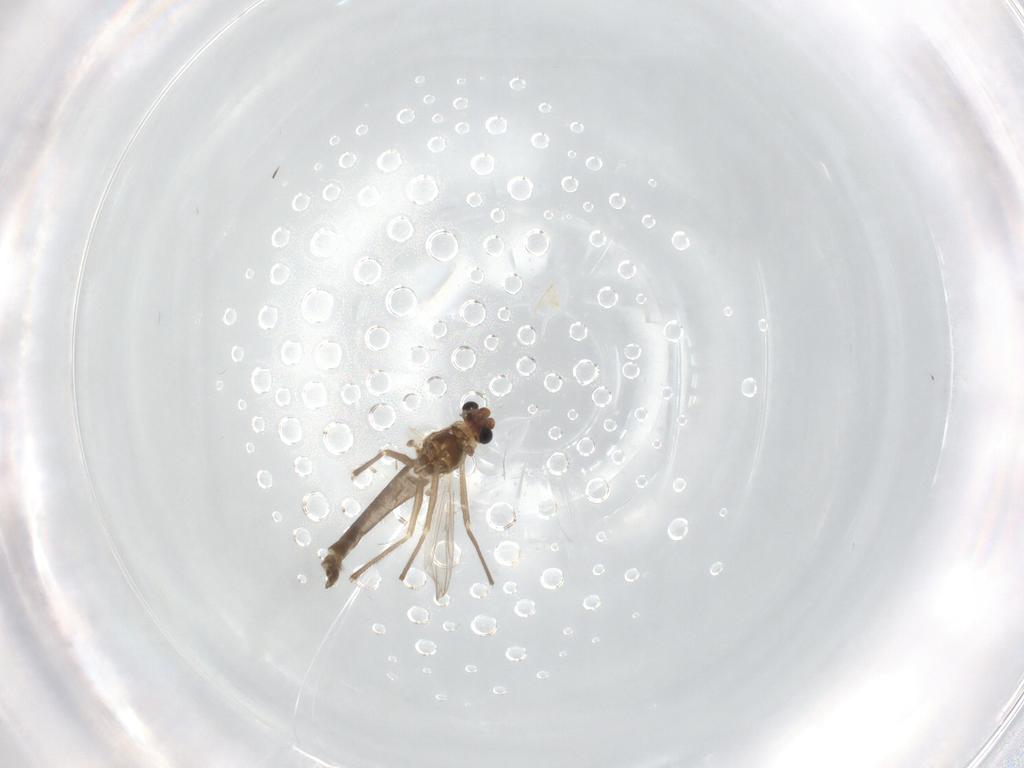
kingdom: Animalia
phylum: Arthropoda
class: Insecta
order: Diptera
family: Chironomidae
